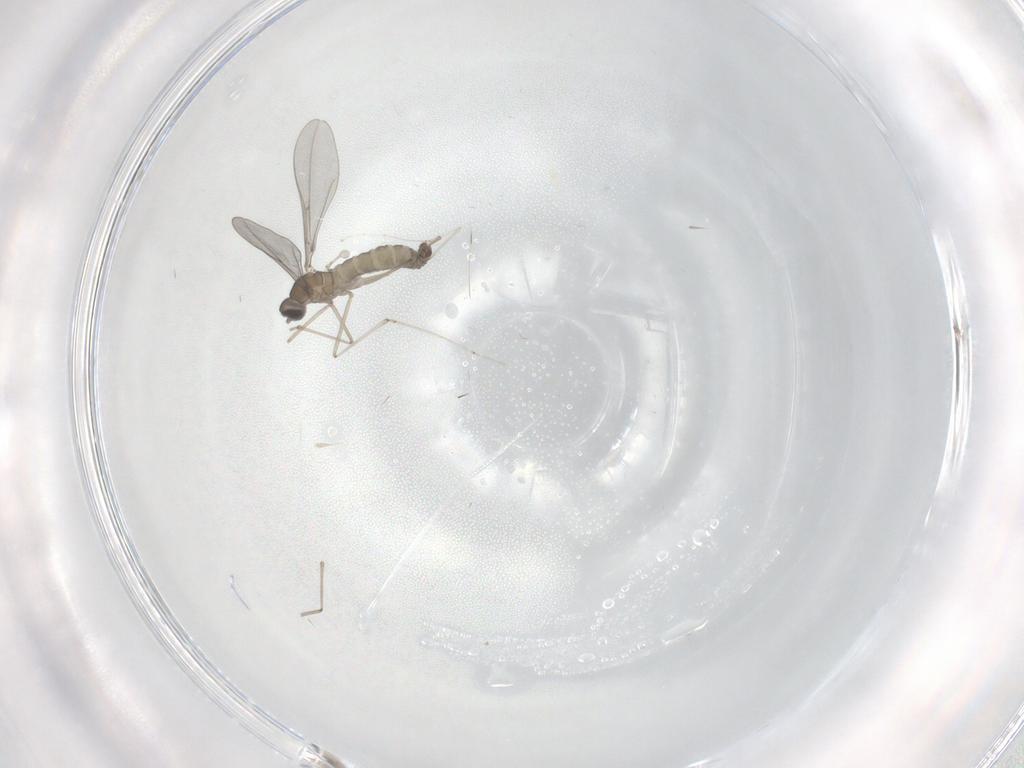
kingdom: Animalia
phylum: Arthropoda
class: Insecta
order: Diptera
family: Cecidomyiidae
